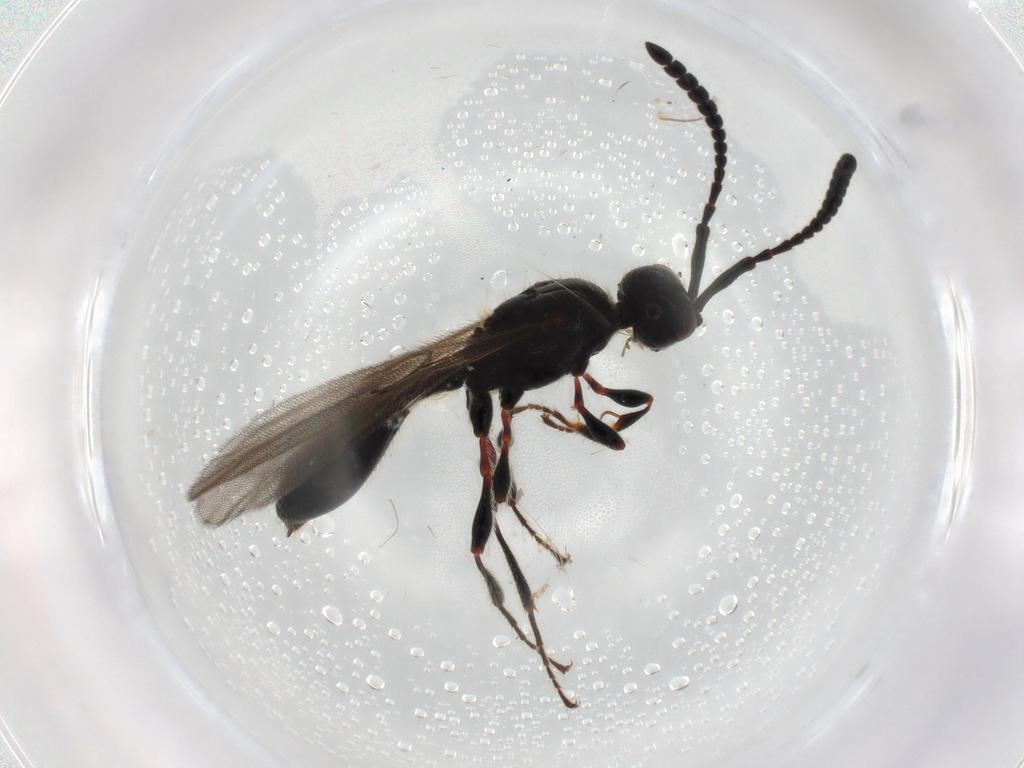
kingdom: Animalia
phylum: Arthropoda
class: Insecta
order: Hymenoptera
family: Diapriidae
